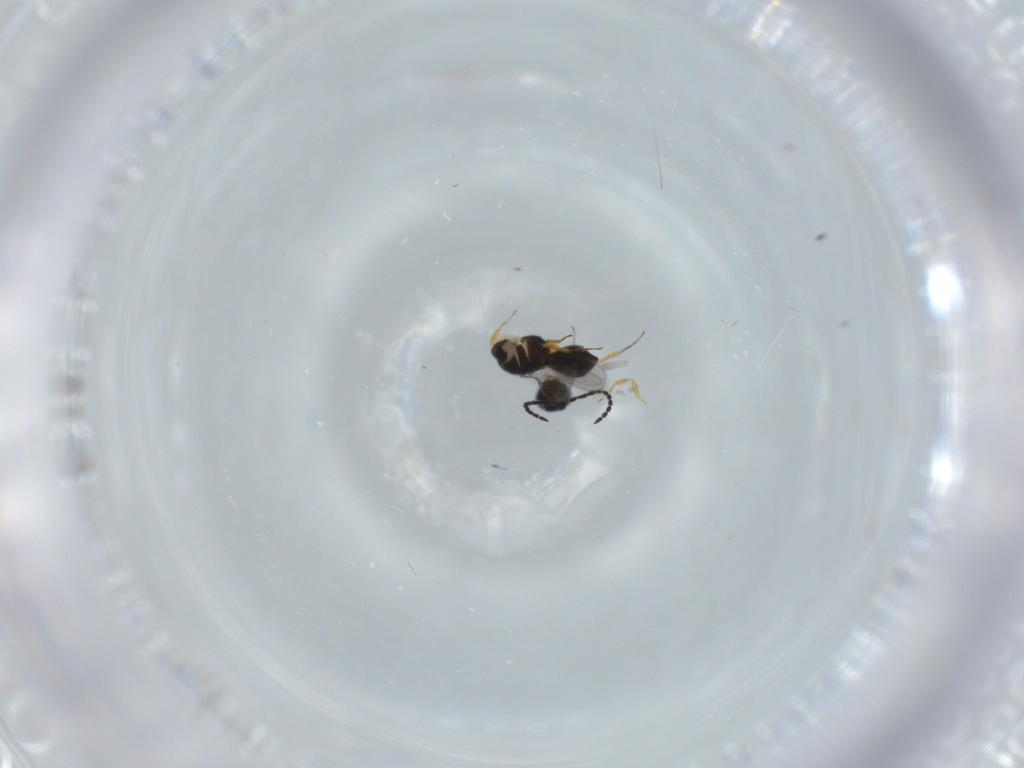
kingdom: Animalia
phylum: Arthropoda
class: Insecta
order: Hymenoptera
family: Scelionidae
